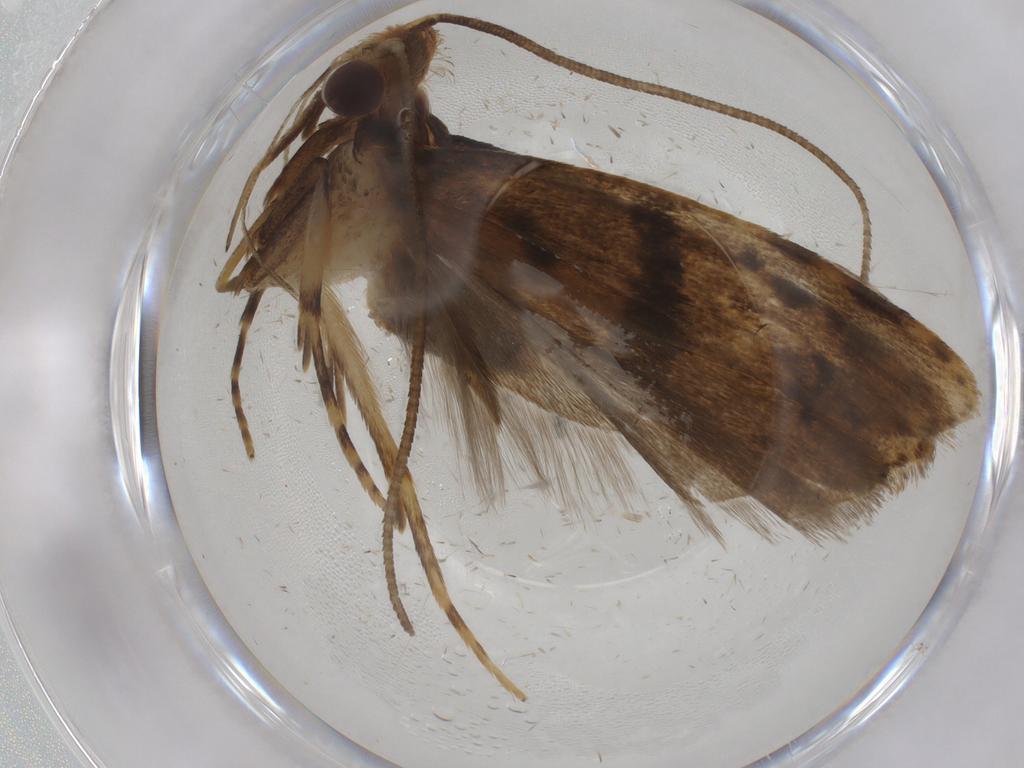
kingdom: Animalia
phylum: Arthropoda
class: Insecta
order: Lepidoptera
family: Autostichidae
